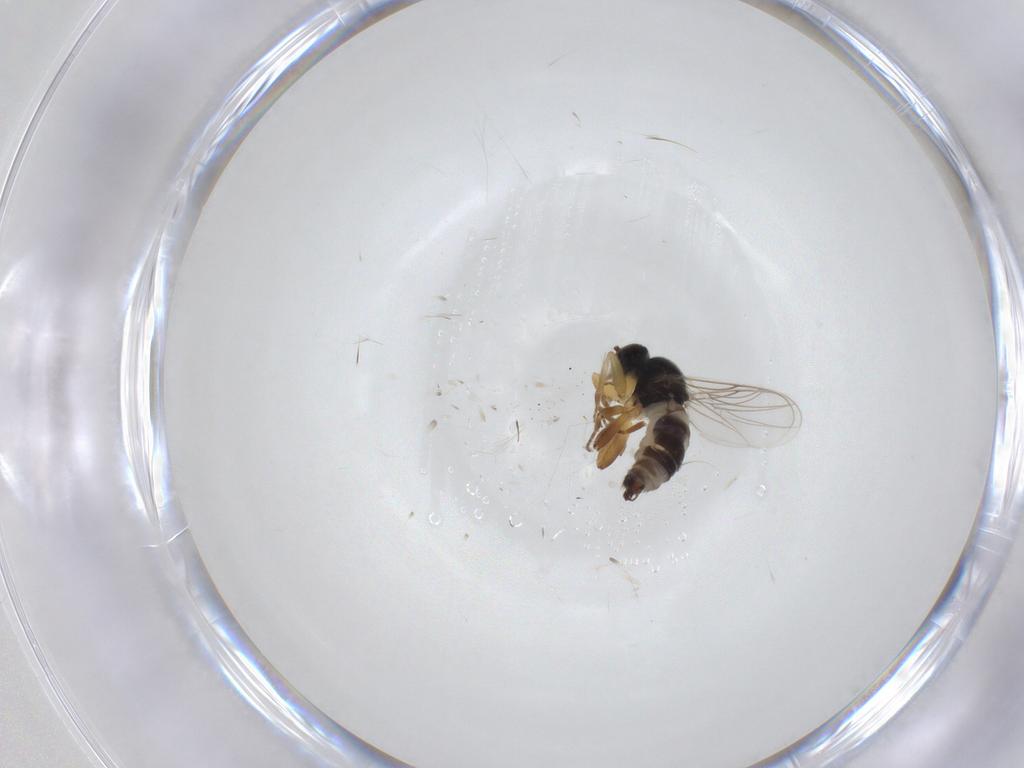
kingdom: Animalia
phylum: Arthropoda
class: Insecta
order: Diptera
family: Hybotidae
